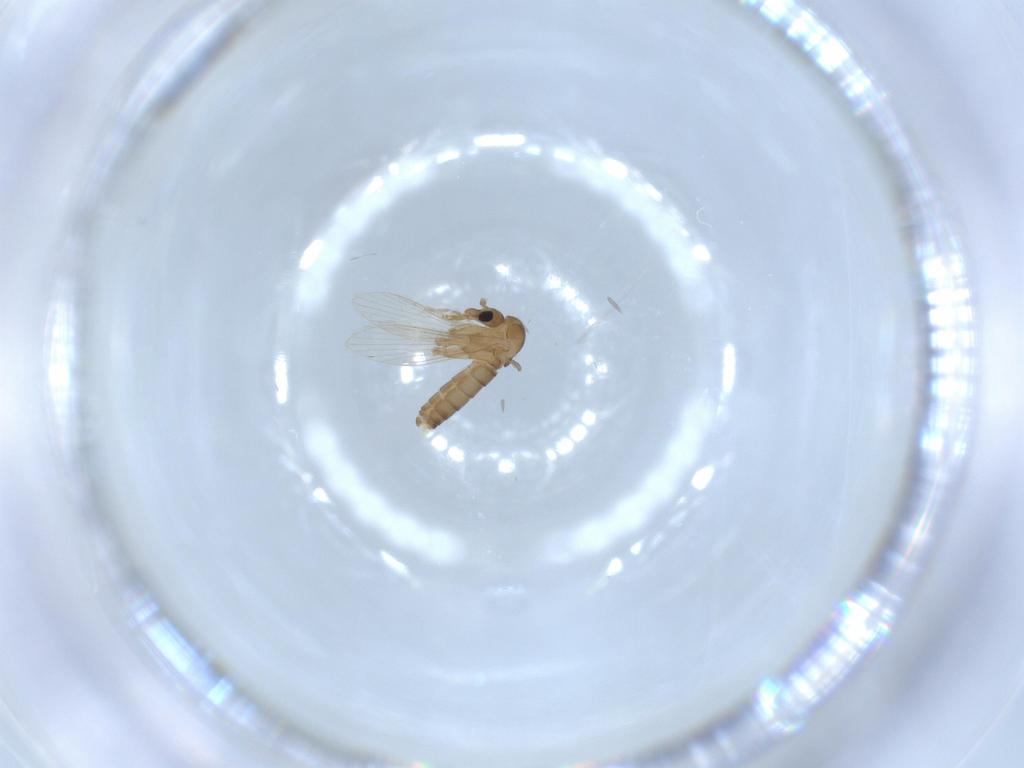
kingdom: Animalia
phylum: Arthropoda
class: Insecta
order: Diptera
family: Psychodidae
